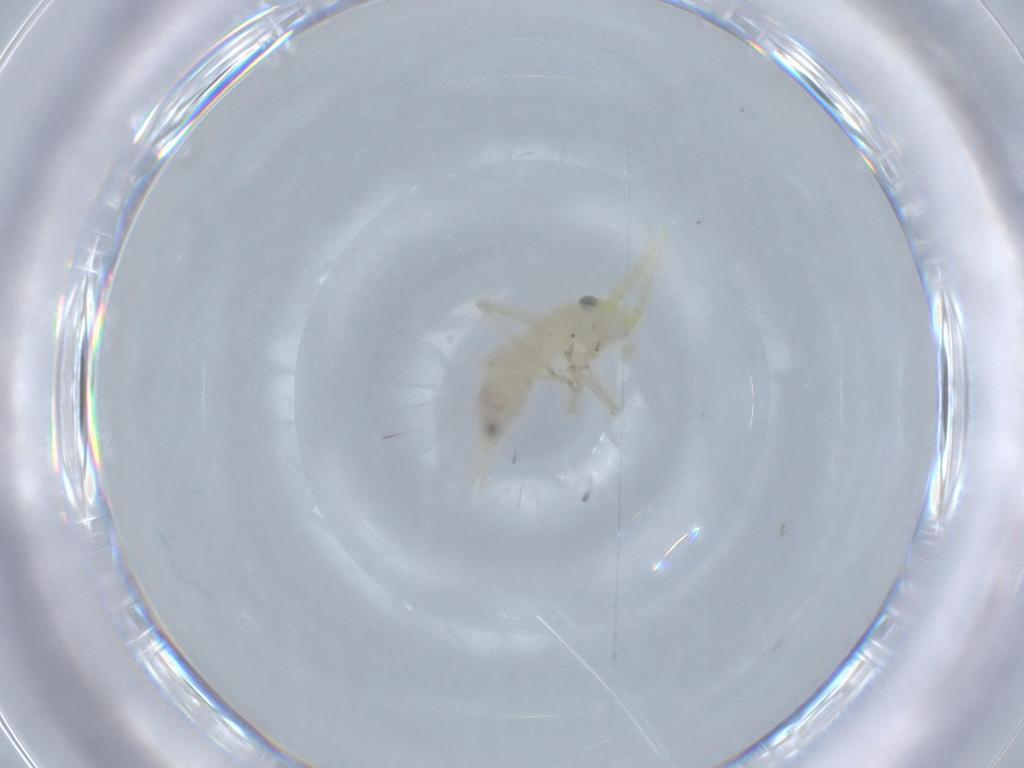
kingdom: Animalia
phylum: Arthropoda
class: Insecta
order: Orthoptera
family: Trigonidiidae
